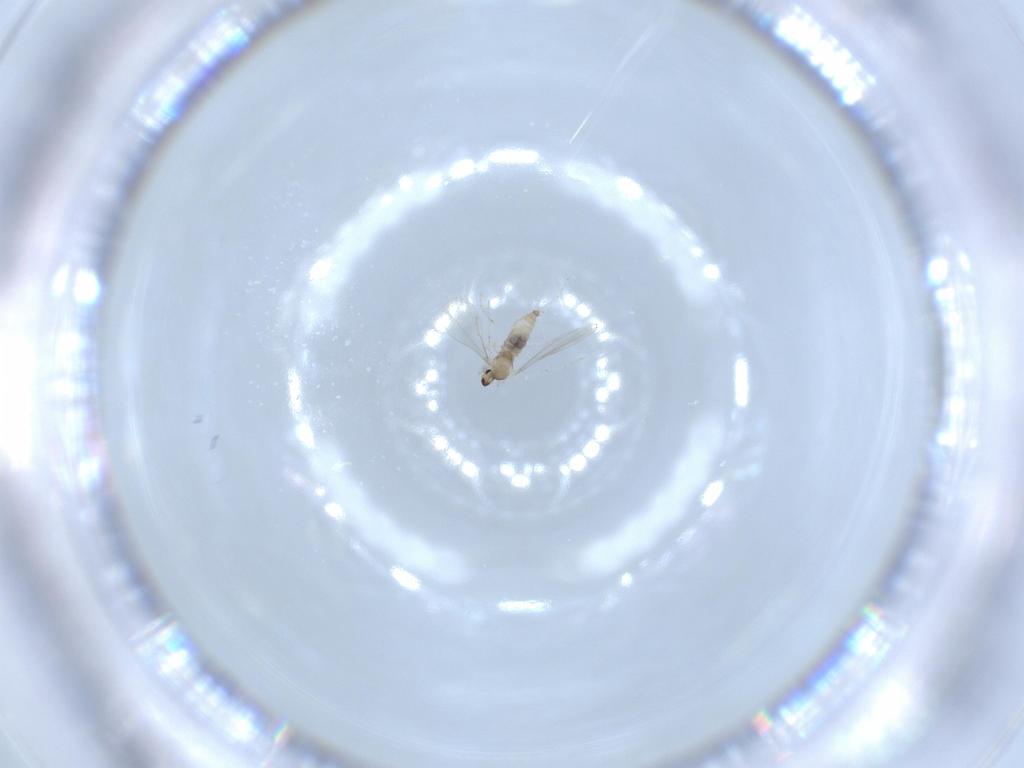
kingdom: Animalia
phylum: Arthropoda
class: Insecta
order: Diptera
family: Cecidomyiidae
